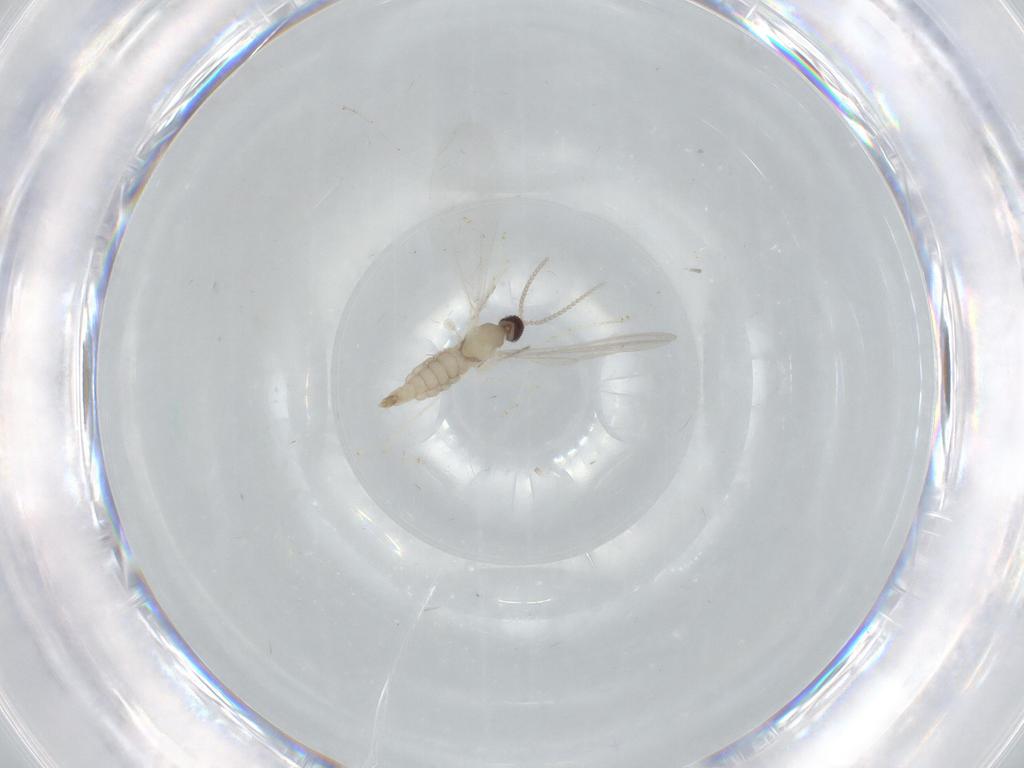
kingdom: Animalia
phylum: Arthropoda
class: Insecta
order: Diptera
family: Cecidomyiidae
